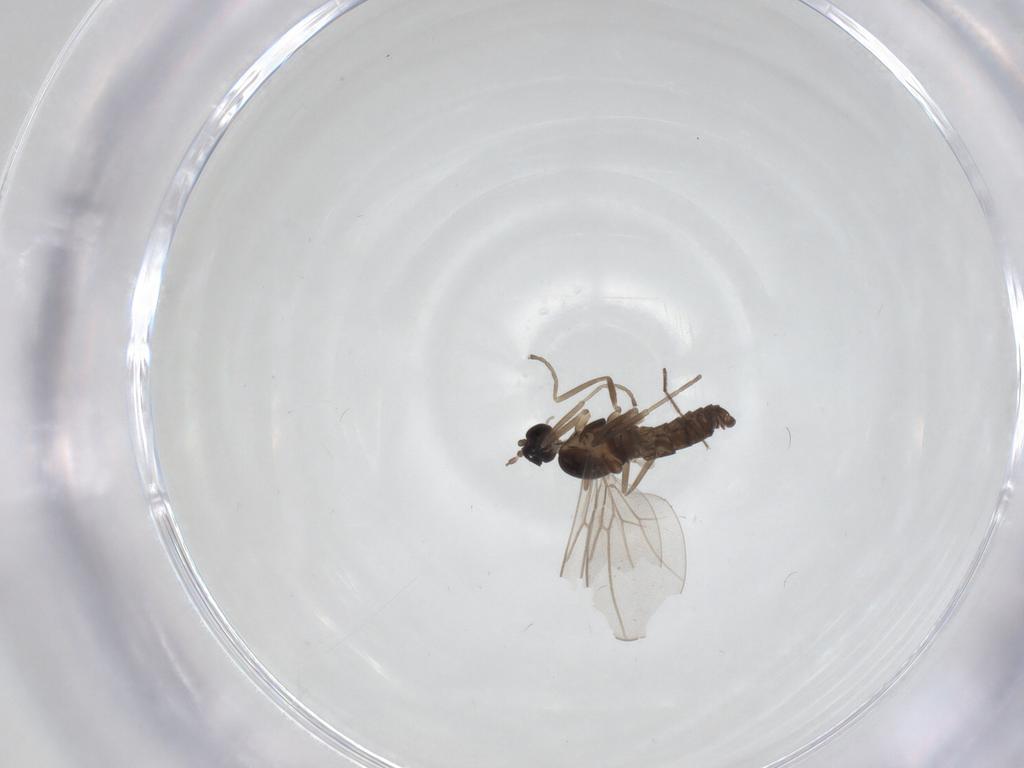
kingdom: Animalia
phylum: Arthropoda
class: Insecta
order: Diptera
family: Cecidomyiidae
